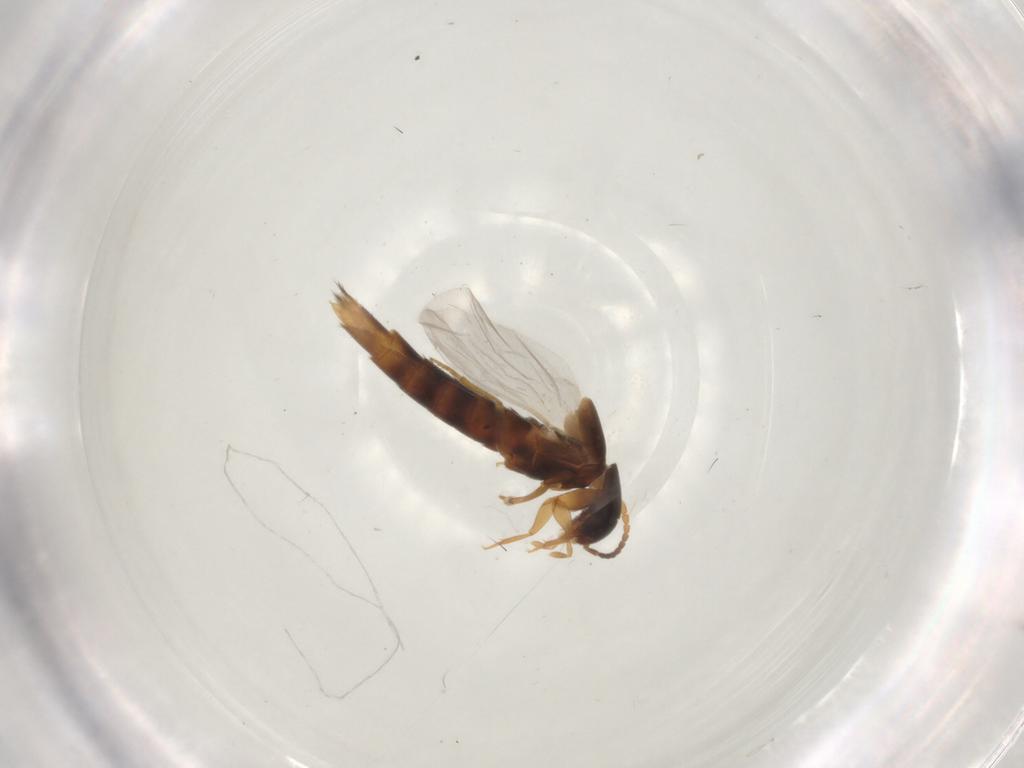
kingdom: Animalia
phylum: Arthropoda
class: Insecta
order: Coleoptera
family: Staphylinidae
